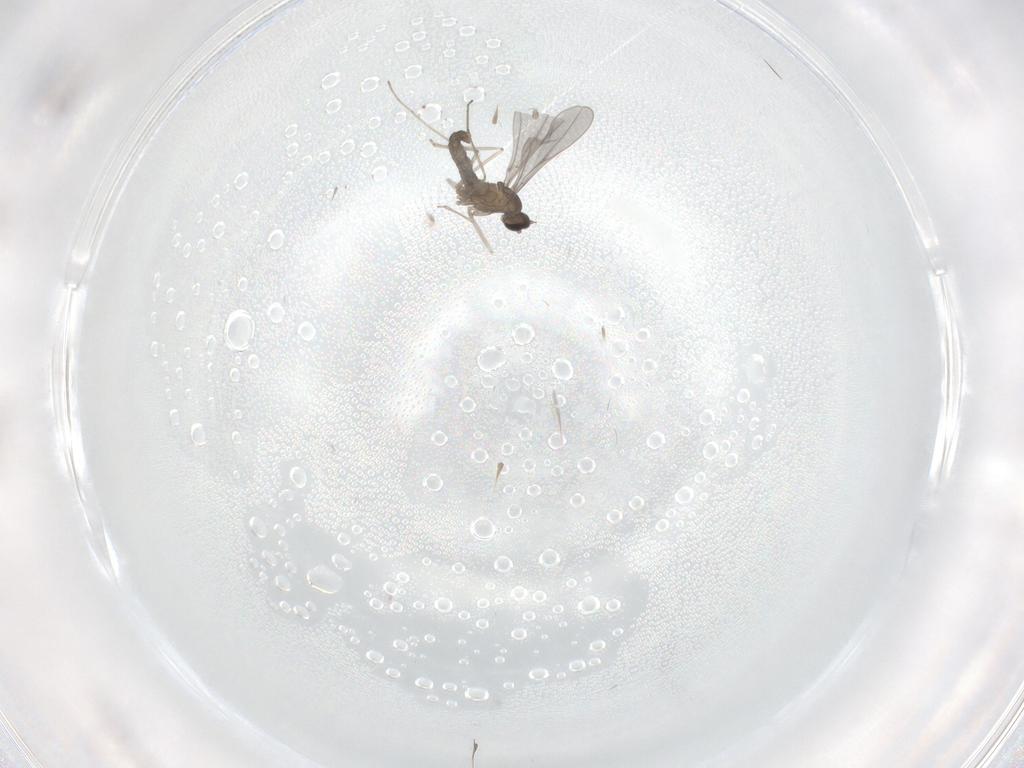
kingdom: Animalia
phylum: Arthropoda
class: Insecta
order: Diptera
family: Cecidomyiidae
